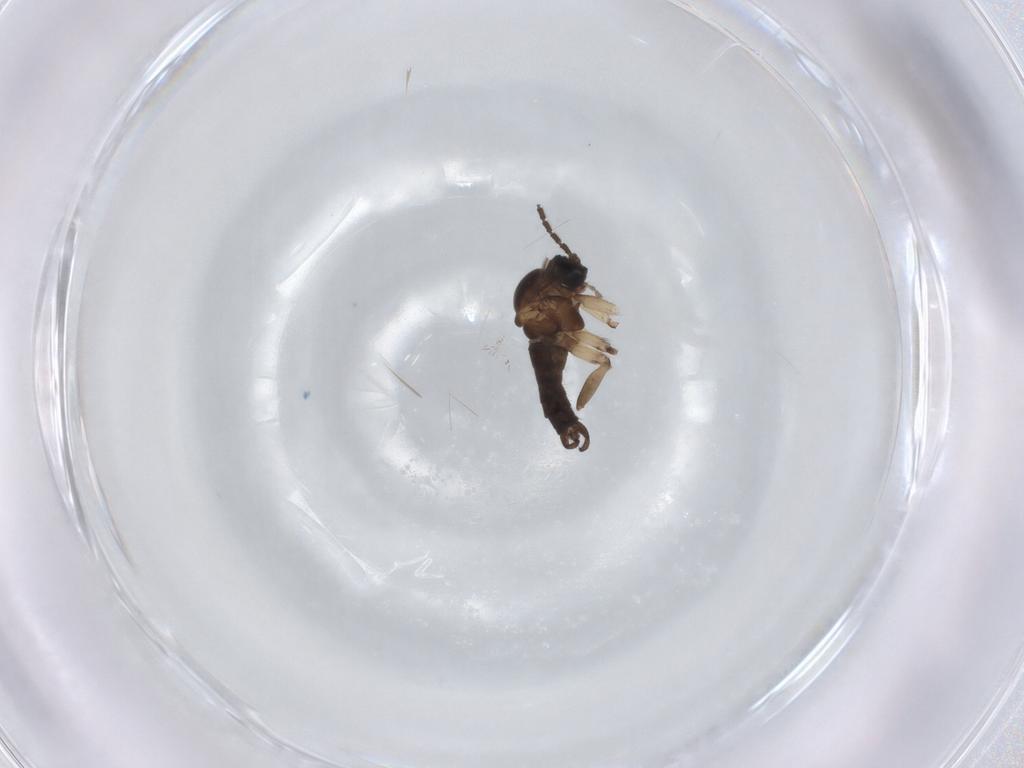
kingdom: Animalia
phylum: Arthropoda
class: Insecta
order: Diptera
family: Sciaridae
